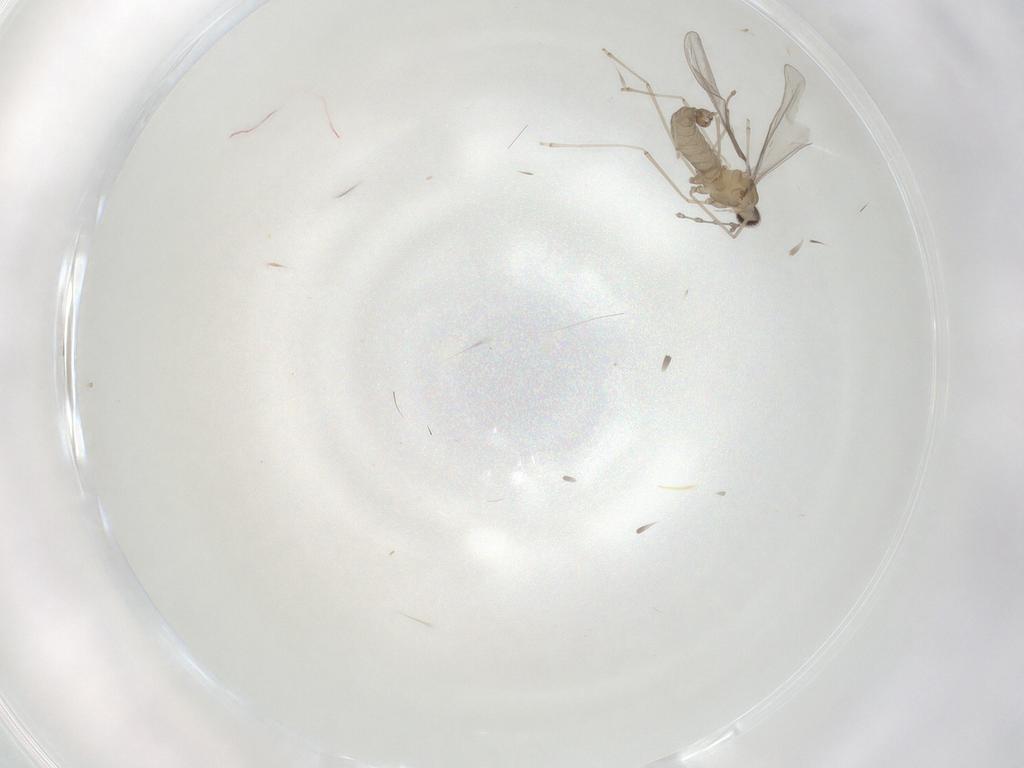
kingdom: Animalia
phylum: Arthropoda
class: Insecta
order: Diptera
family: Cecidomyiidae
